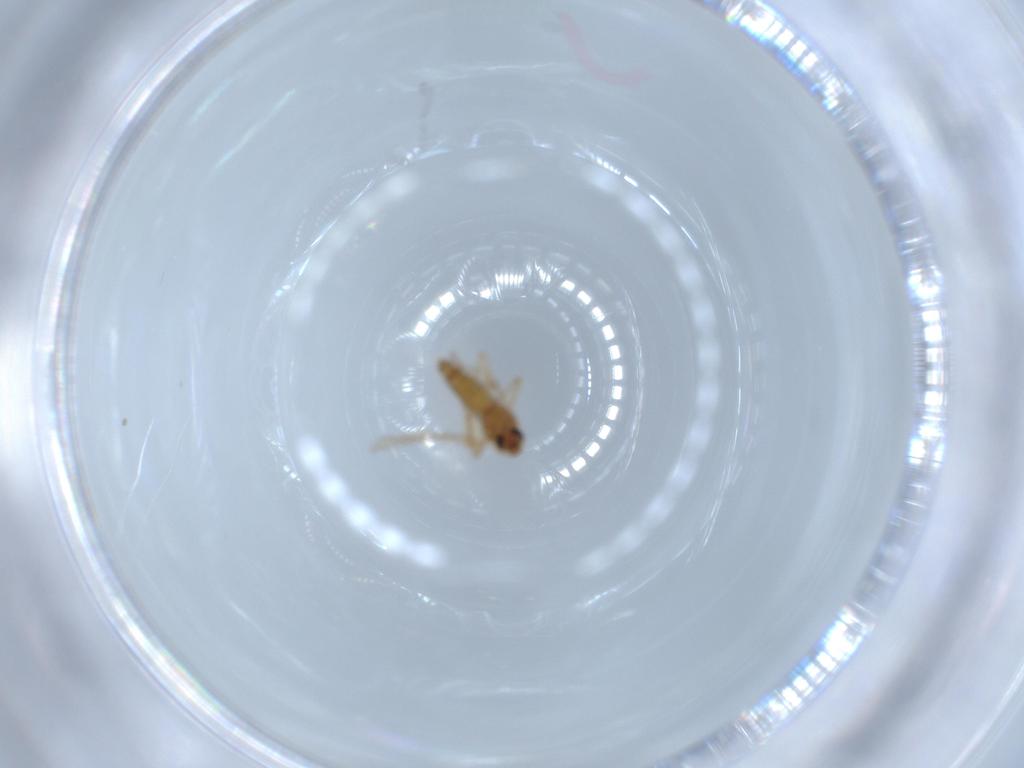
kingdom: Animalia
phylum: Arthropoda
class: Insecta
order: Diptera
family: Chironomidae
